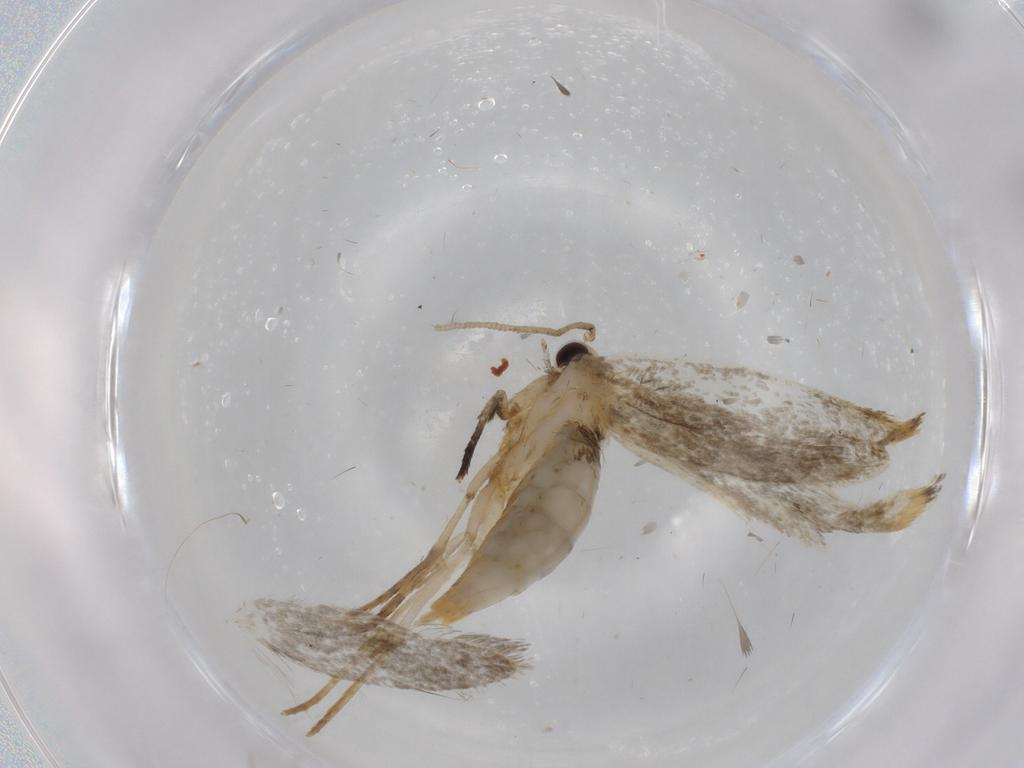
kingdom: Animalia
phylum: Arthropoda
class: Insecta
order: Lepidoptera
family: Tineidae
